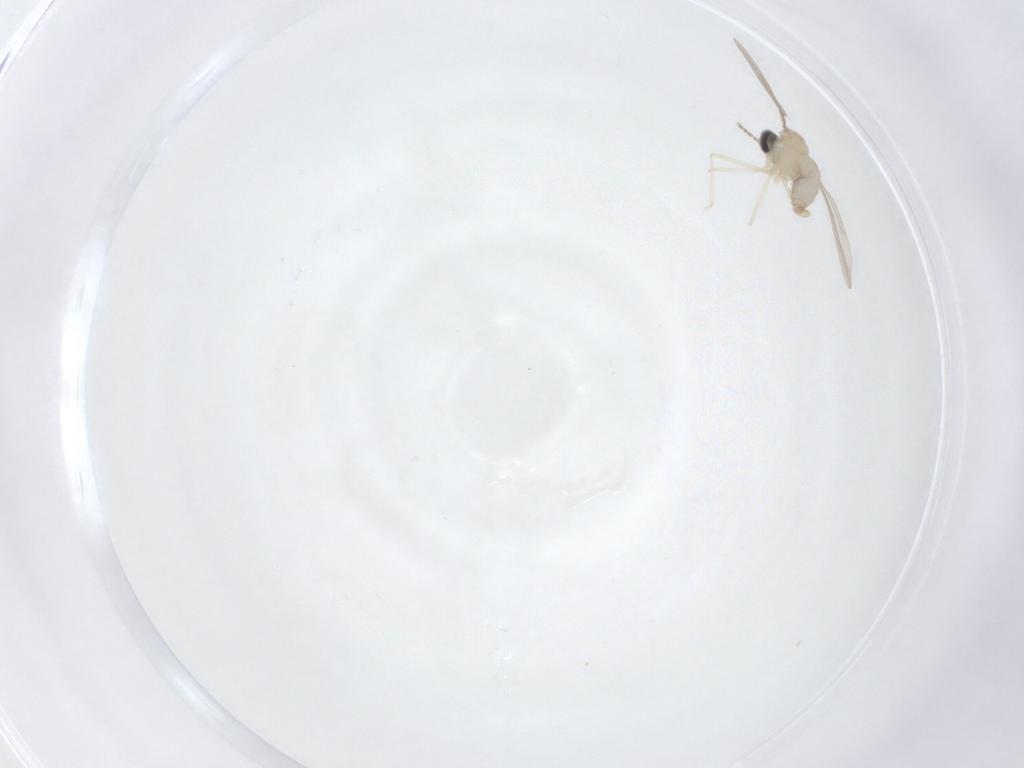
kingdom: Animalia
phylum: Arthropoda
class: Insecta
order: Diptera
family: Cecidomyiidae
